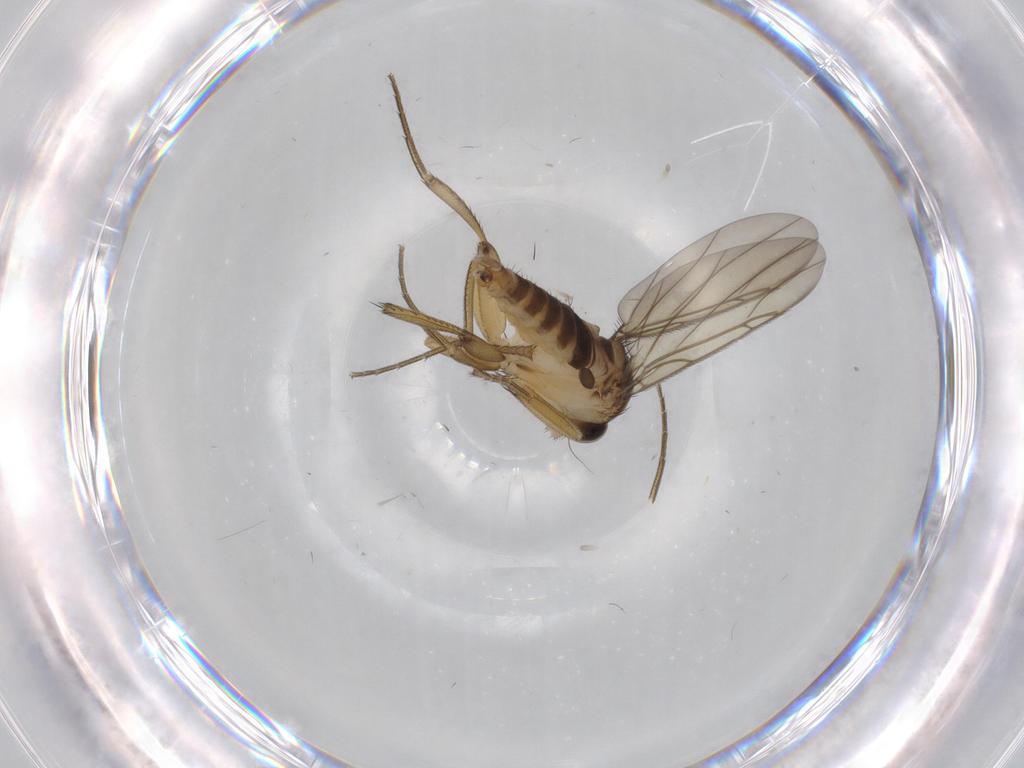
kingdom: Animalia
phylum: Arthropoda
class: Insecta
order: Diptera
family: Phoridae
